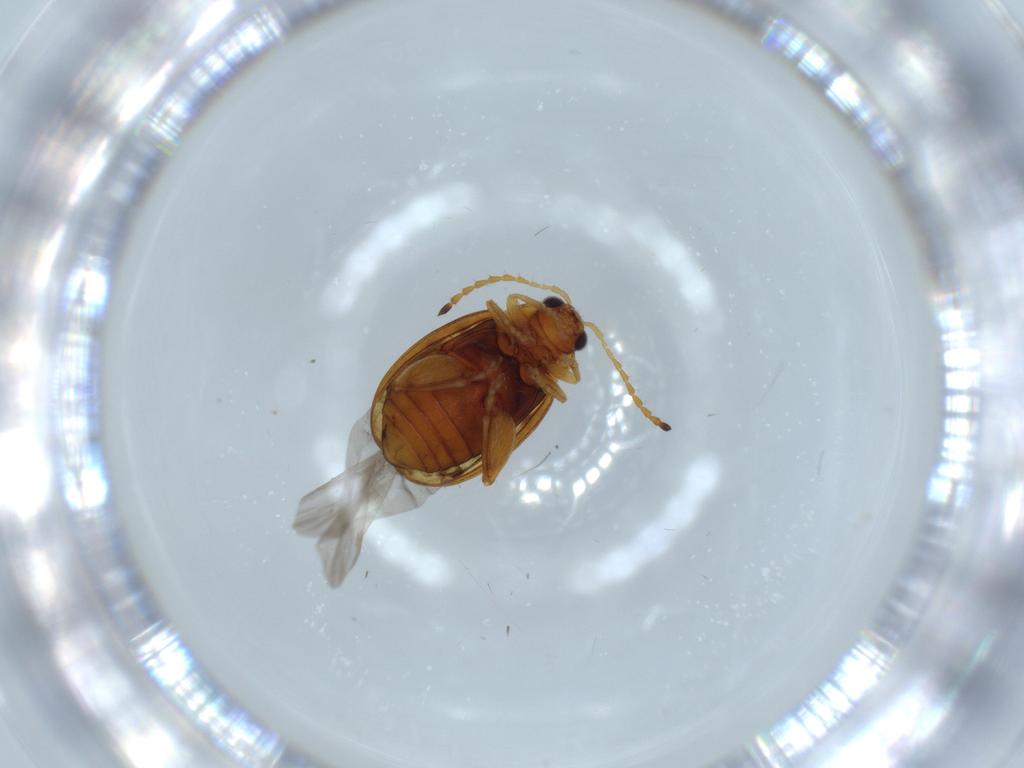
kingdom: Animalia
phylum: Arthropoda
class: Insecta
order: Coleoptera
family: Chrysomelidae
